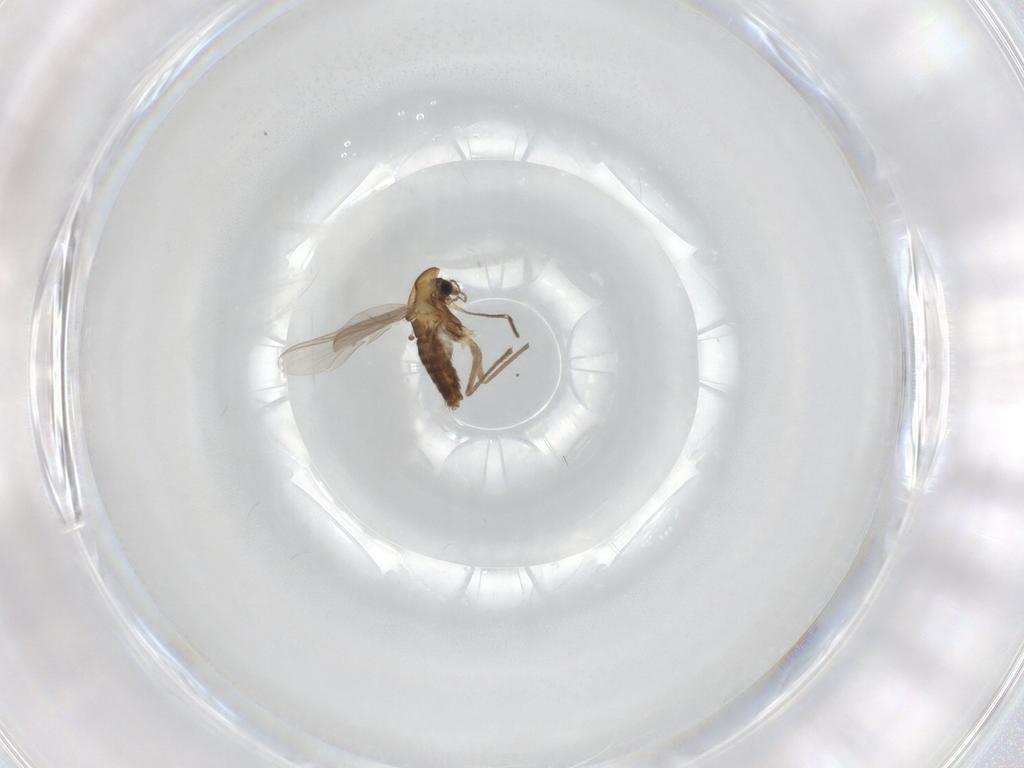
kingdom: Animalia
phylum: Arthropoda
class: Insecta
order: Diptera
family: Chironomidae
